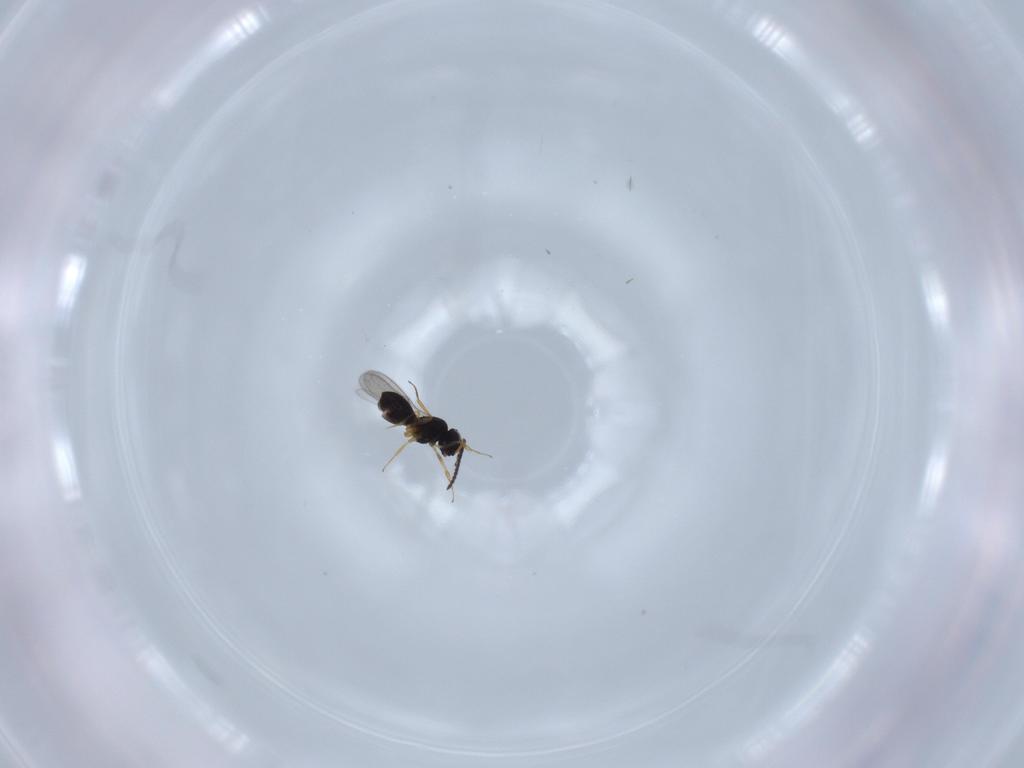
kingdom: Animalia
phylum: Arthropoda
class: Insecta
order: Hymenoptera
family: Scelionidae
